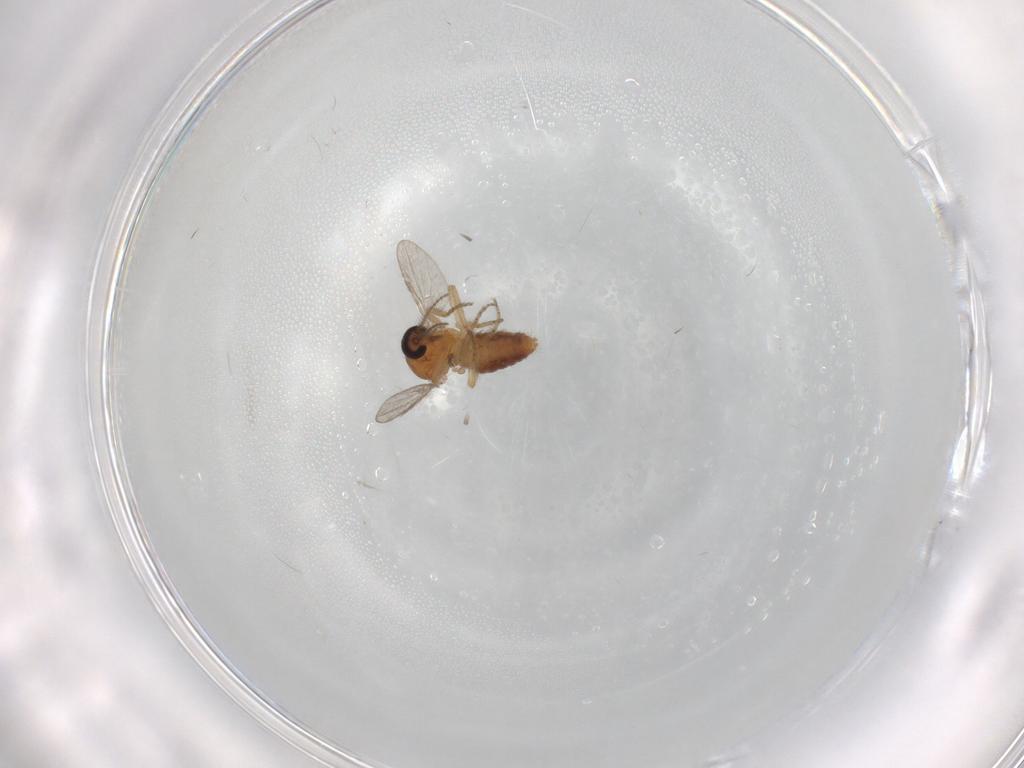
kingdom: Animalia
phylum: Arthropoda
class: Insecta
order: Diptera
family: Ceratopogonidae
